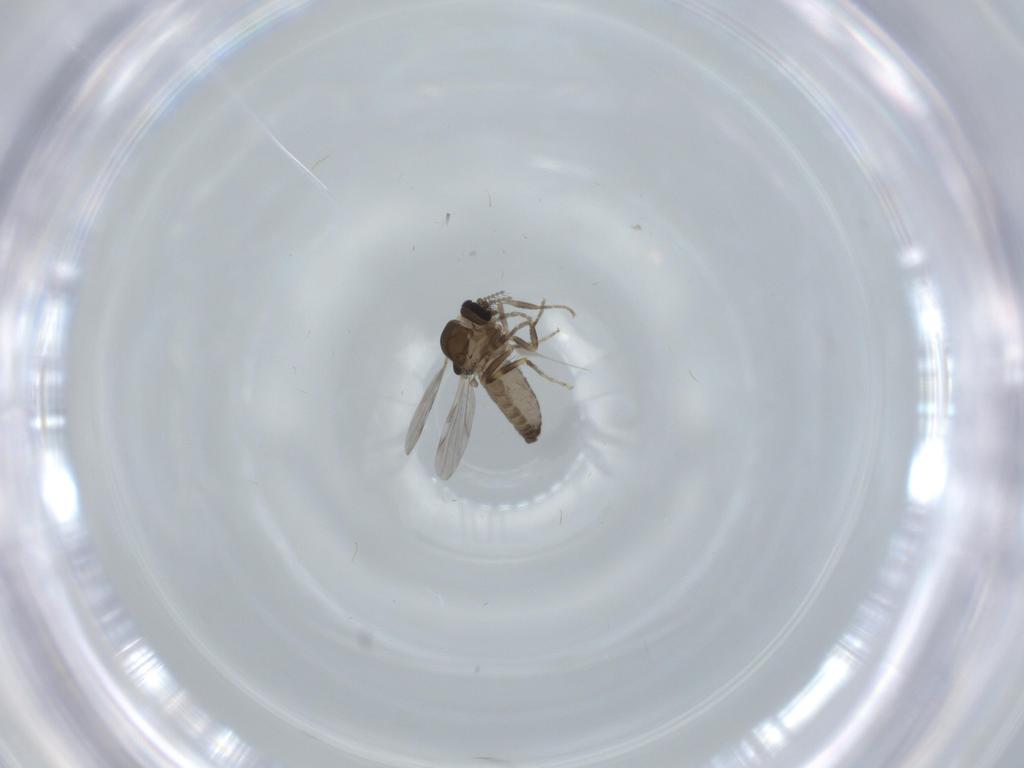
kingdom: Animalia
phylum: Arthropoda
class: Insecta
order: Diptera
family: Ceratopogonidae
